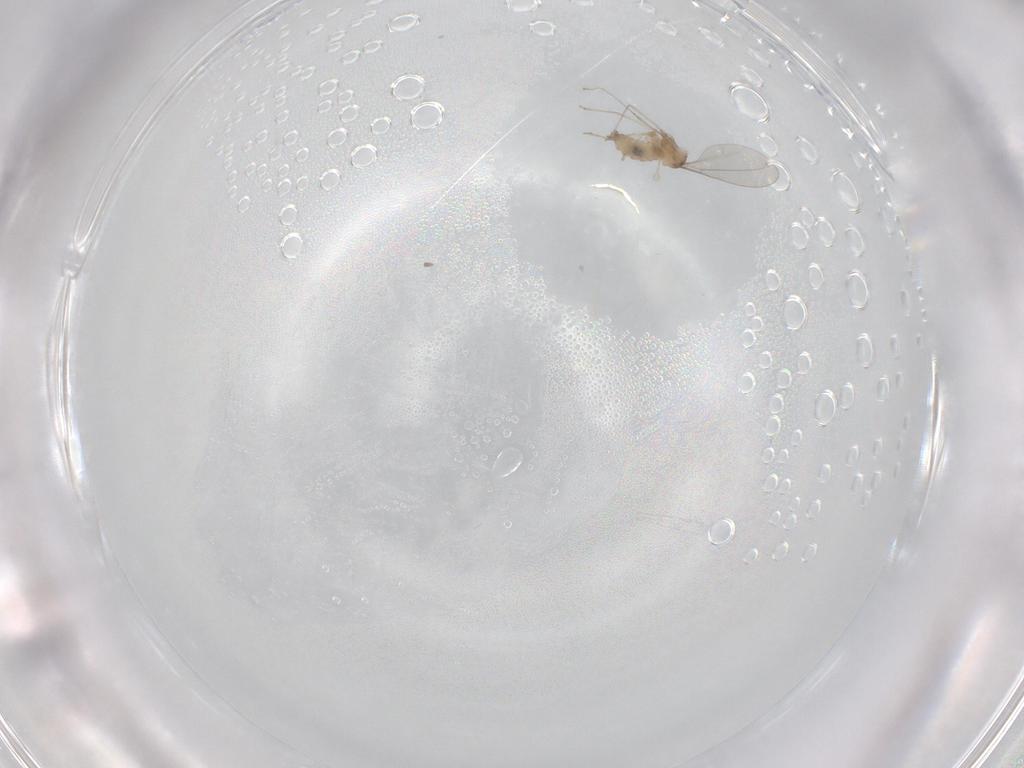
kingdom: Animalia
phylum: Arthropoda
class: Insecta
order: Diptera
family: Cecidomyiidae
